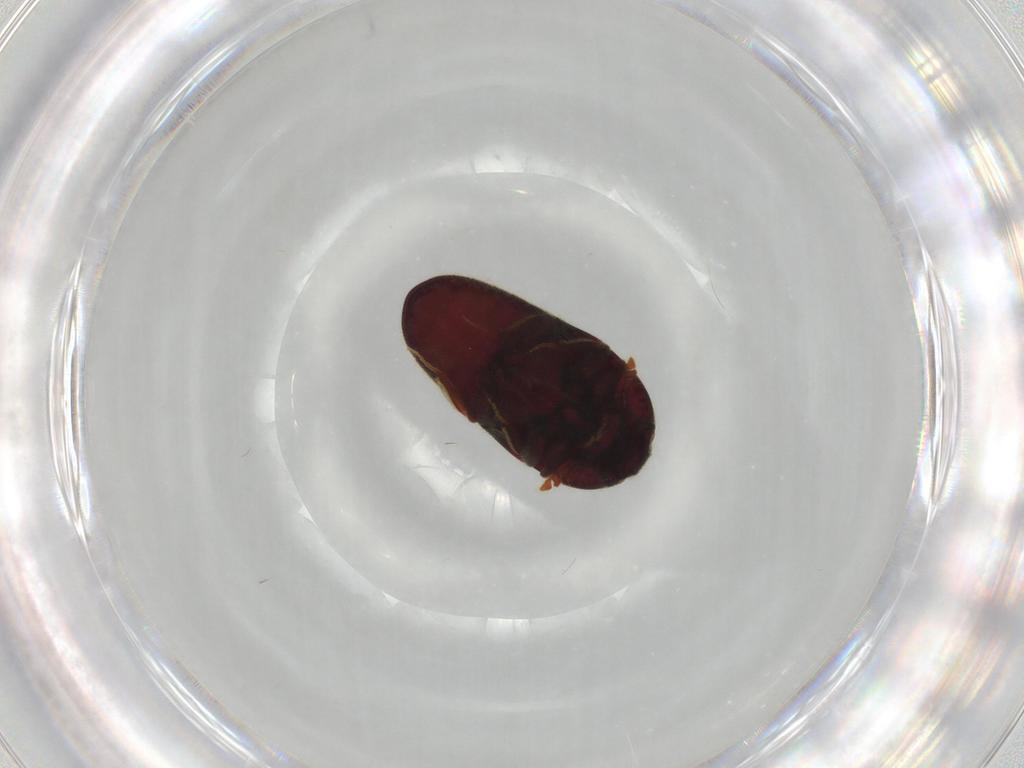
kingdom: Animalia
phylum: Arthropoda
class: Insecta
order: Coleoptera
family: Throscidae
